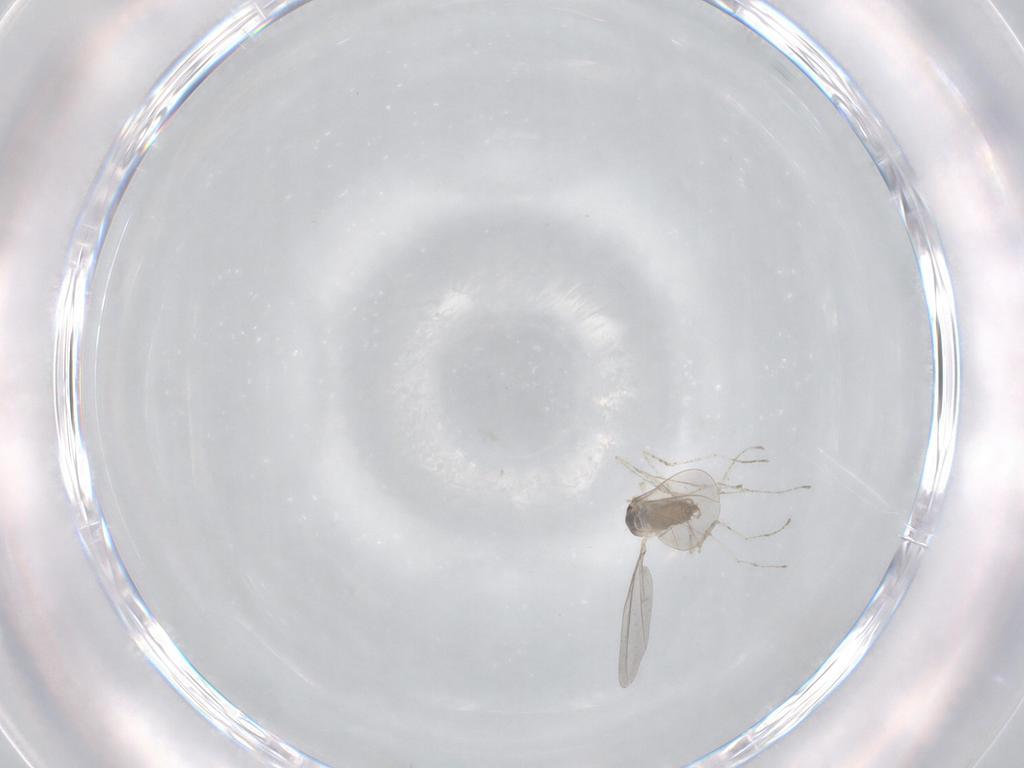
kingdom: Animalia
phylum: Arthropoda
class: Insecta
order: Diptera
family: Cecidomyiidae
